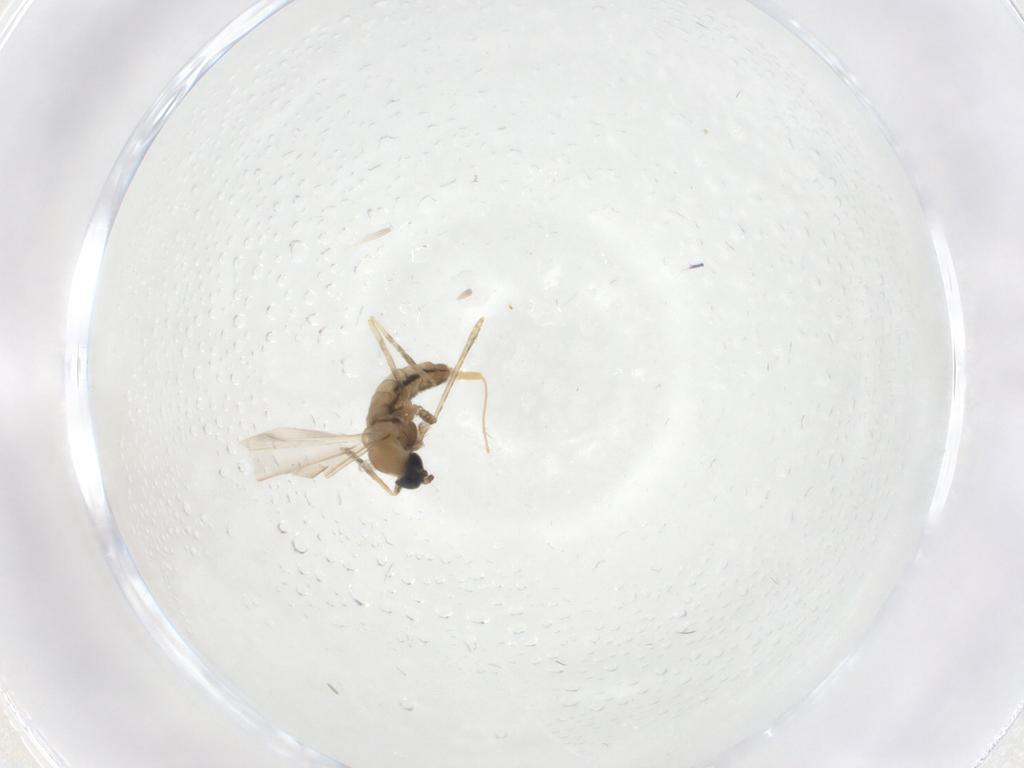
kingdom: Animalia
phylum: Arthropoda
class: Insecta
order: Diptera
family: Cecidomyiidae
